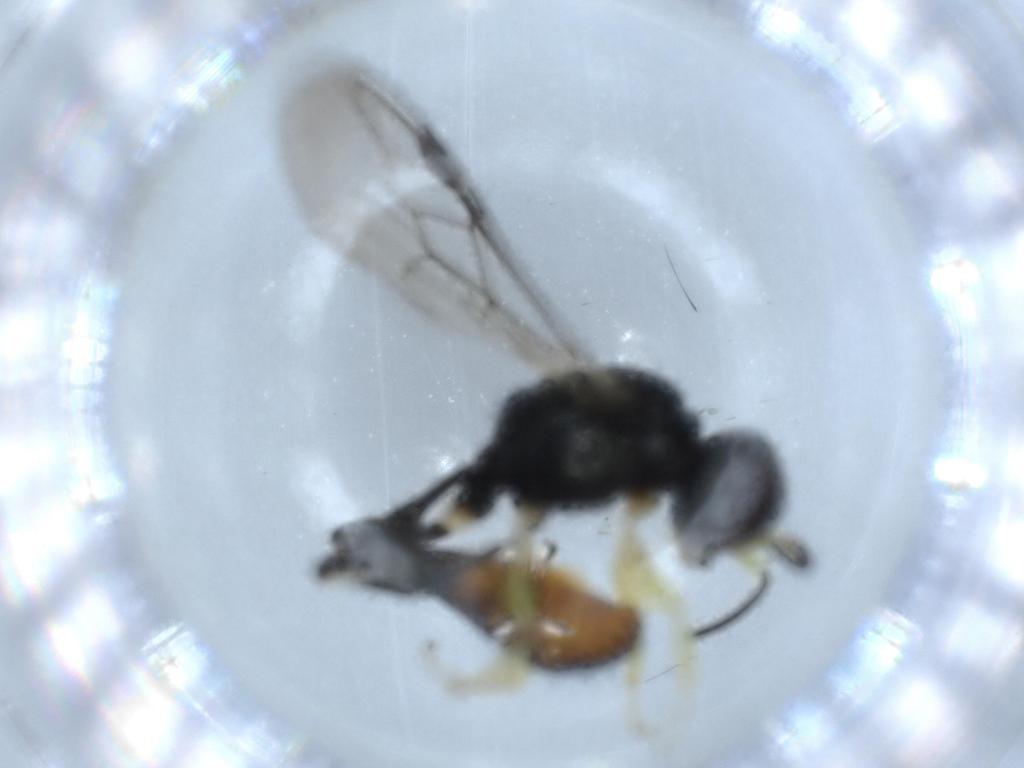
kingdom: Animalia
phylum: Arthropoda
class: Insecta
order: Hymenoptera
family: Crabronidae
